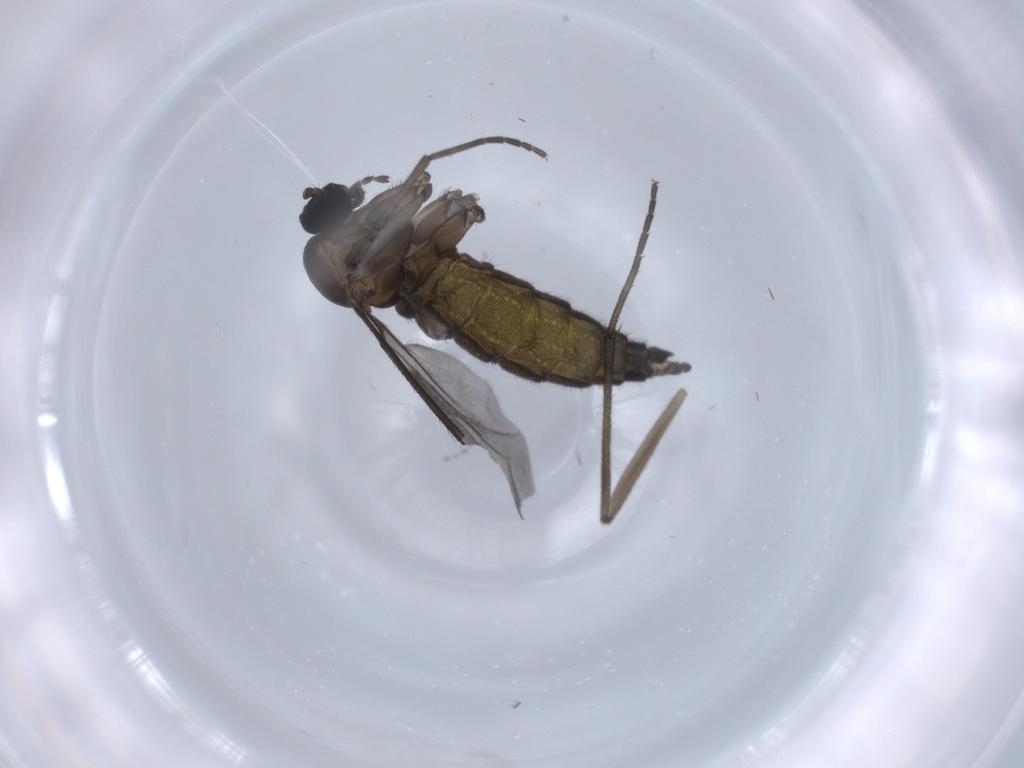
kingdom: Animalia
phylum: Arthropoda
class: Insecta
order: Diptera
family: Sciaridae
